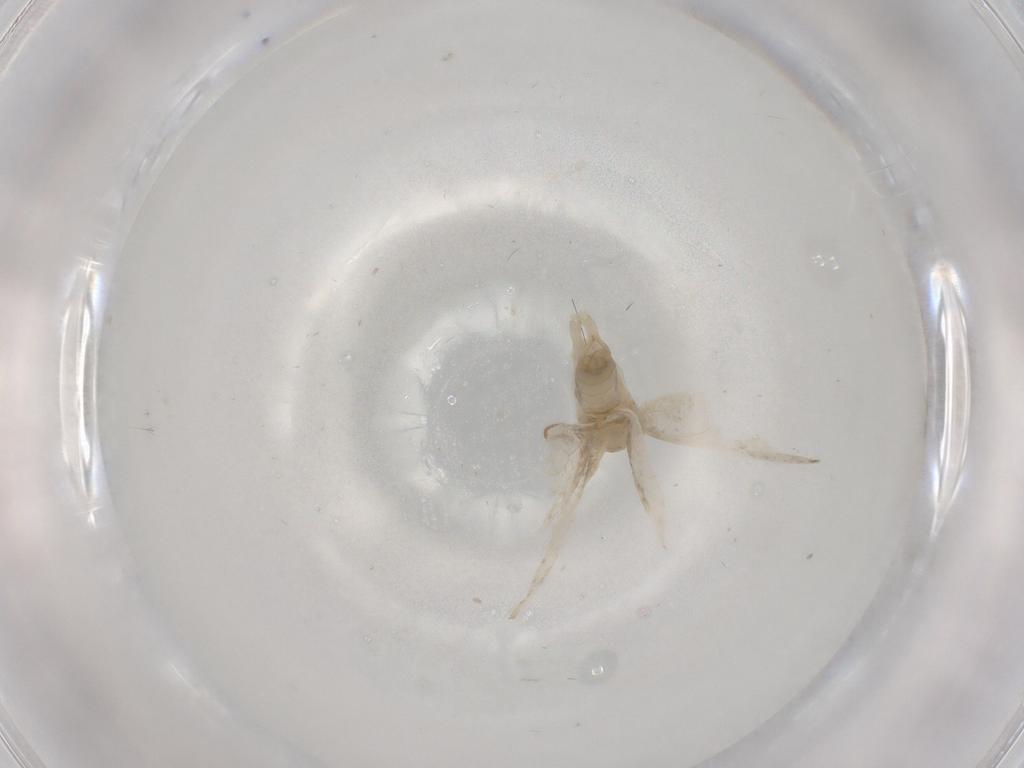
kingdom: Animalia
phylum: Arthropoda
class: Insecta
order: Lepidoptera
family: Psychidae
